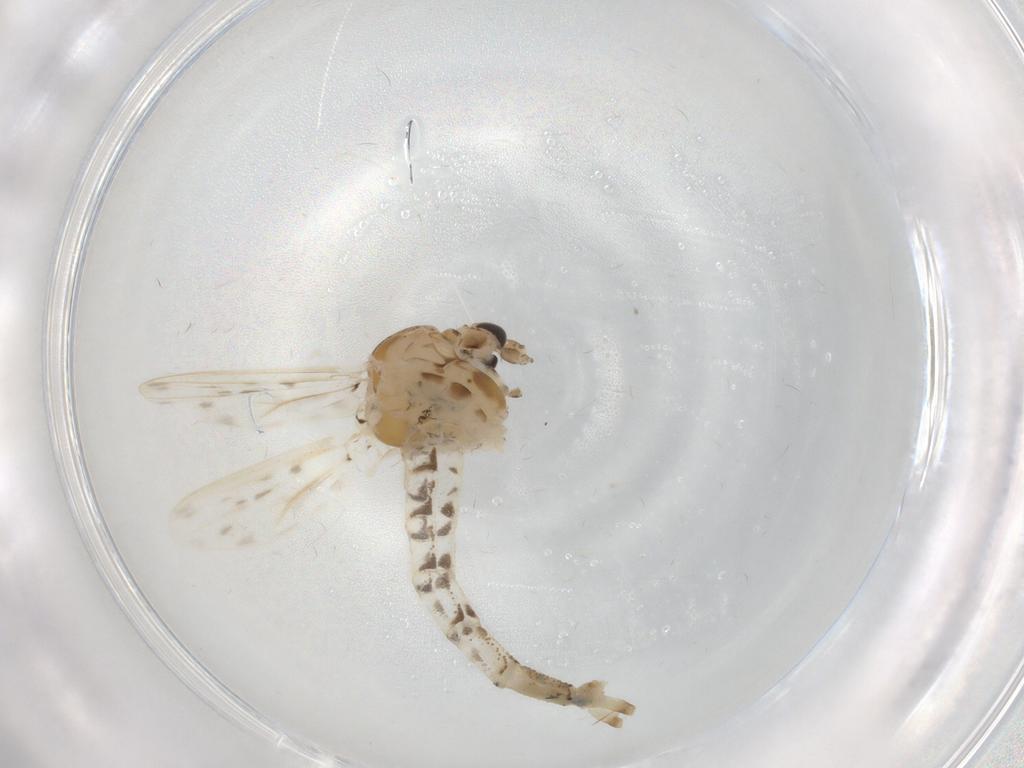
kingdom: Animalia
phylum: Arthropoda
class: Insecta
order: Diptera
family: Chaoboridae
